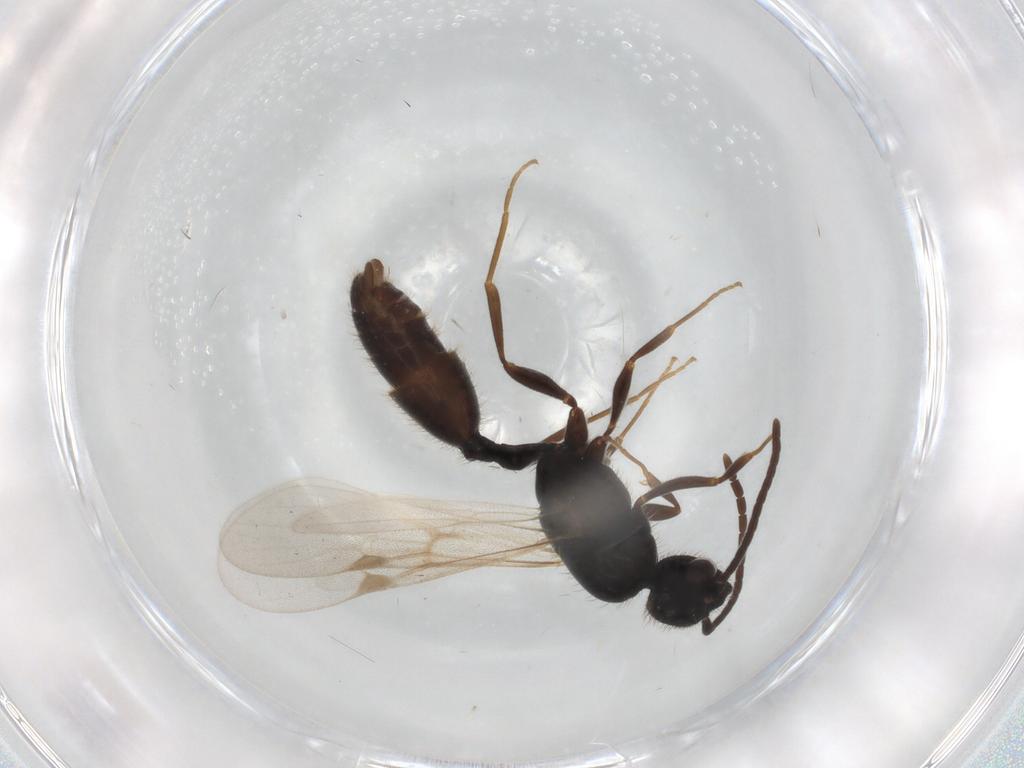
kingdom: Animalia
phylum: Arthropoda
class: Insecta
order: Hymenoptera
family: Formicidae
